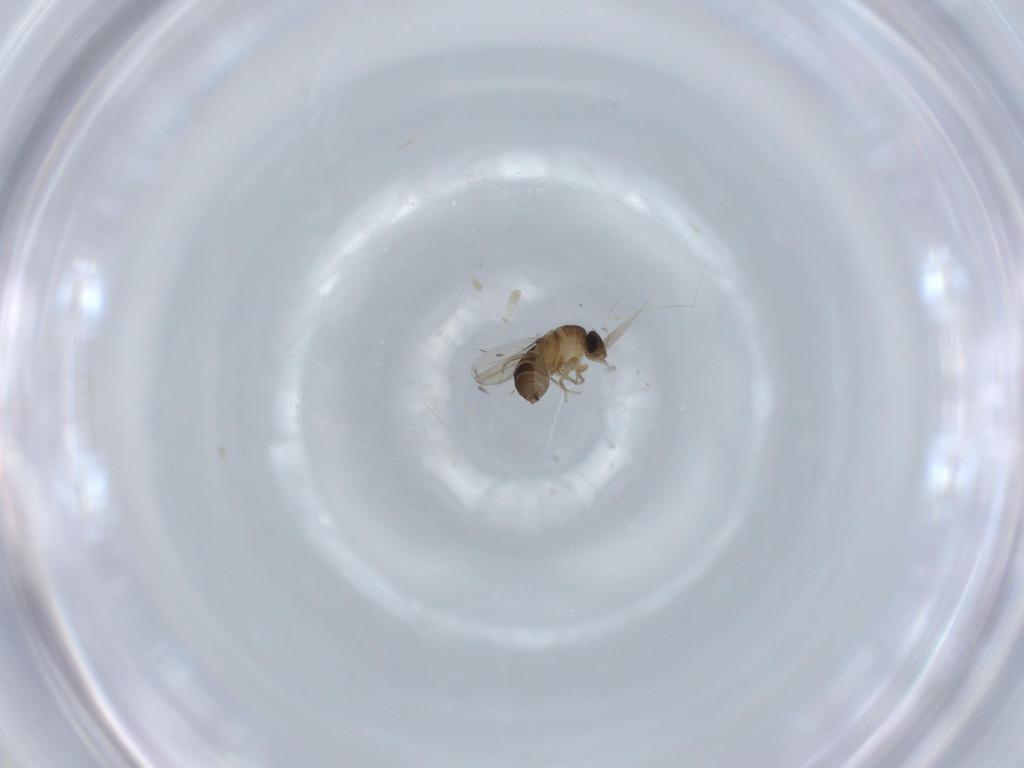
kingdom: Animalia
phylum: Arthropoda
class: Insecta
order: Diptera
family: Phoridae
